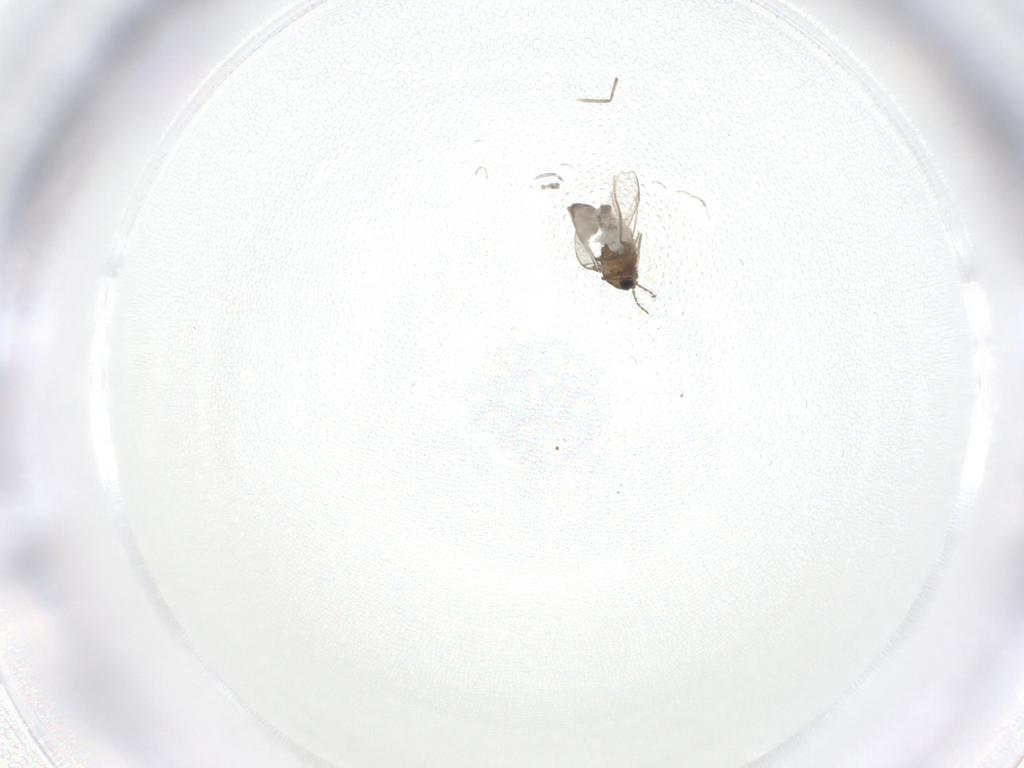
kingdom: Animalia
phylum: Arthropoda
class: Insecta
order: Diptera
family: Chironomidae
